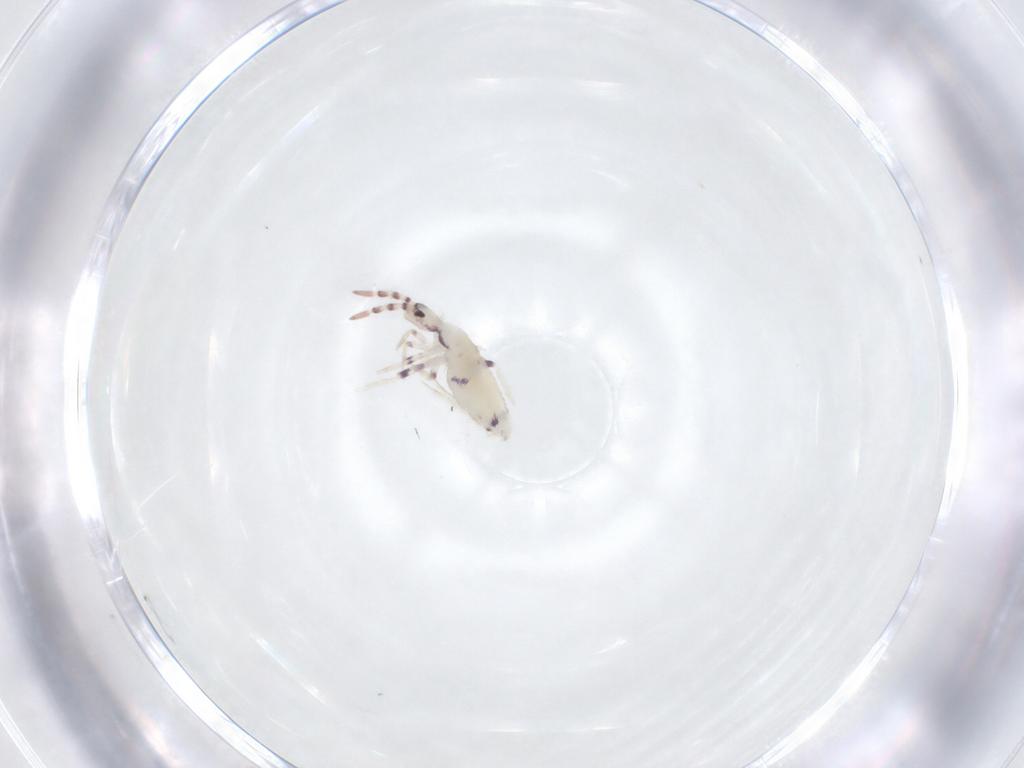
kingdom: Animalia
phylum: Arthropoda
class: Collembola
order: Entomobryomorpha
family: Entomobryidae
